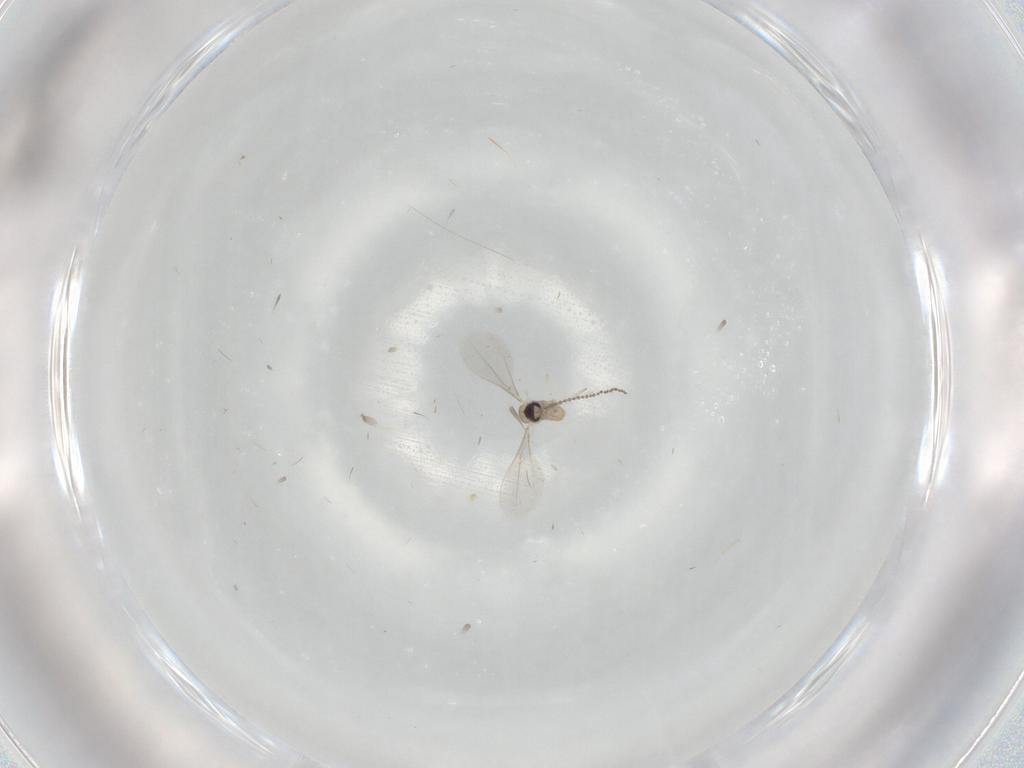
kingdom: Animalia
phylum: Arthropoda
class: Insecta
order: Diptera
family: Cecidomyiidae
